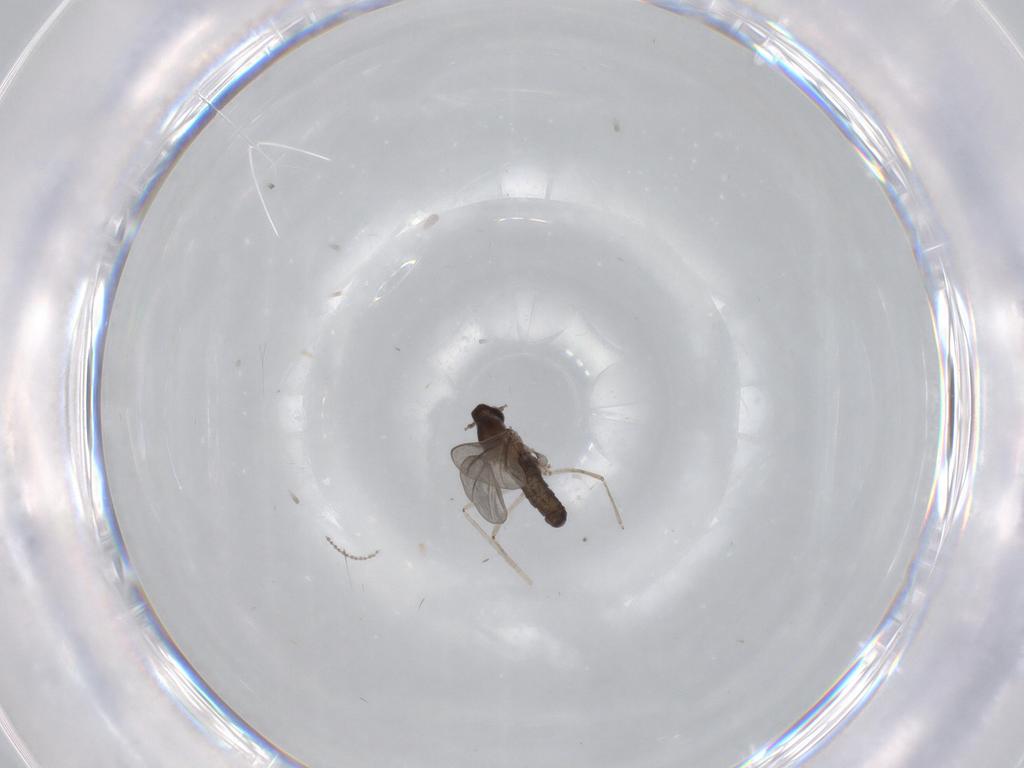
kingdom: Animalia
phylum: Arthropoda
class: Insecta
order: Diptera
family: Cecidomyiidae
